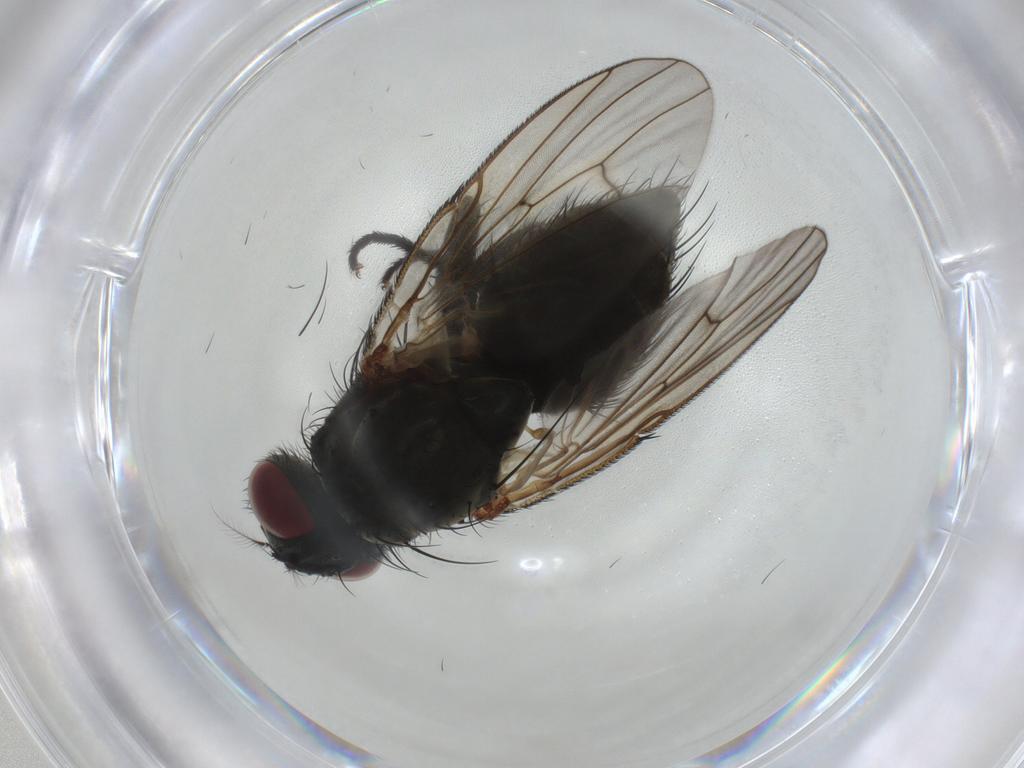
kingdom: Animalia
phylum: Arthropoda
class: Insecta
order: Diptera
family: Muscidae
